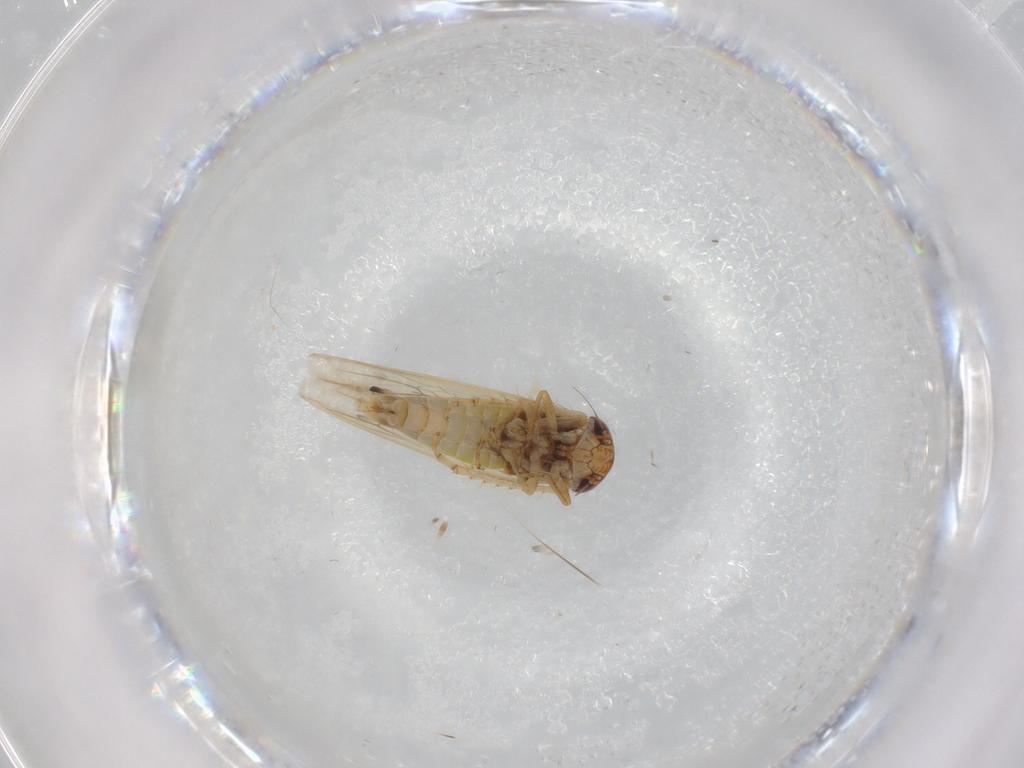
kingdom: Animalia
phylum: Arthropoda
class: Insecta
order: Hemiptera
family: Cicadellidae
